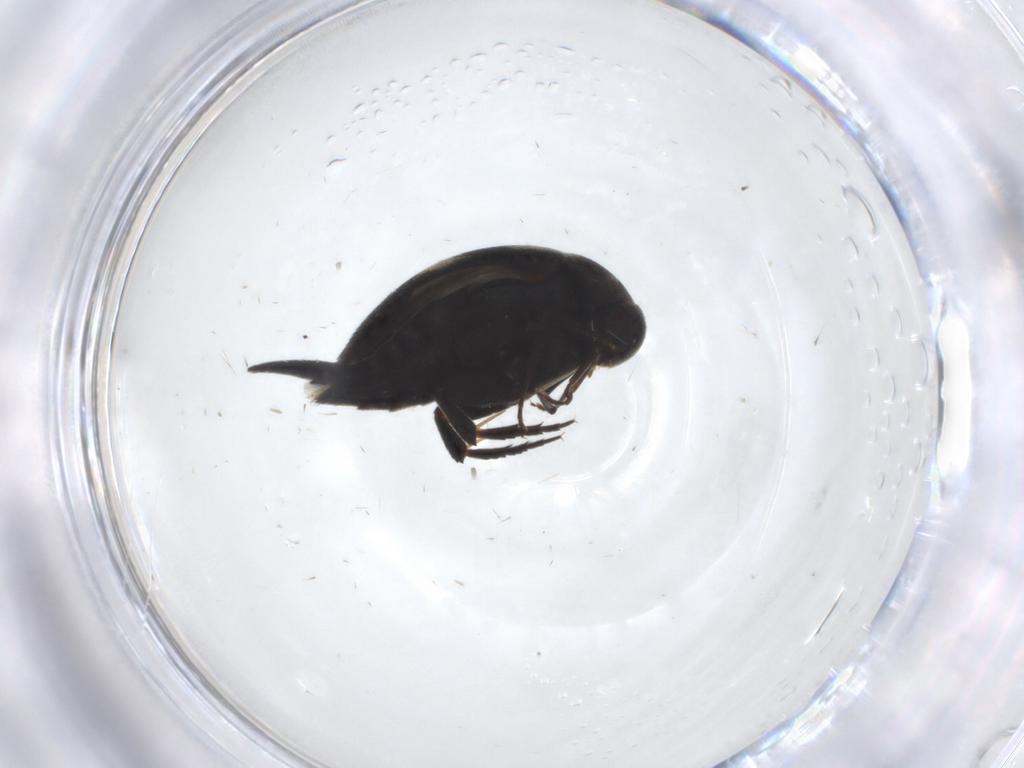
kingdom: Animalia
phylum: Arthropoda
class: Insecta
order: Coleoptera
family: Mordellidae
